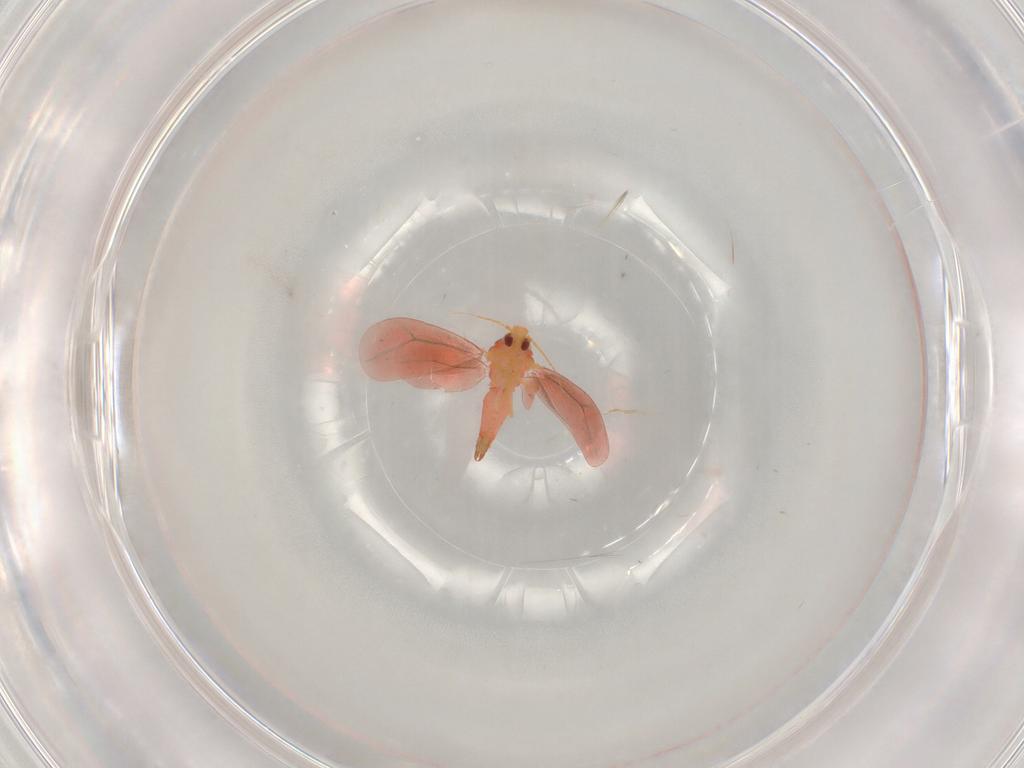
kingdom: Animalia
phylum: Arthropoda
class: Insecta
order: Hemiptera
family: Aleyrodidae
